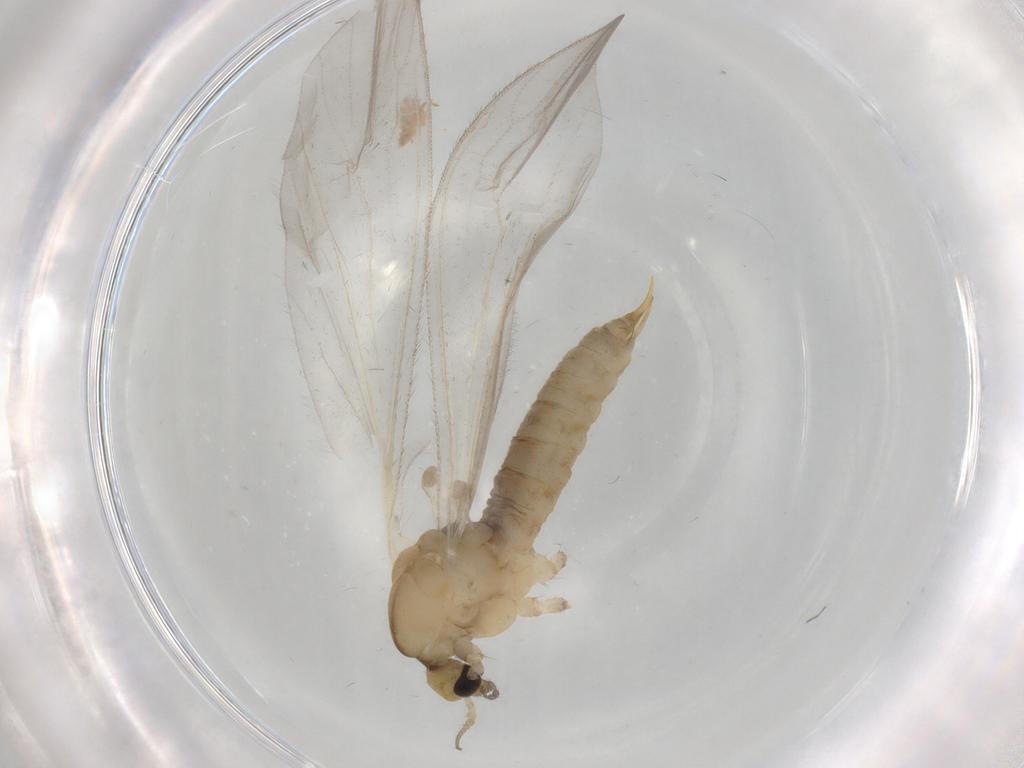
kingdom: Animalia
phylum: Arthropoda
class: Insecta
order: Diptera
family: Limoniidae
